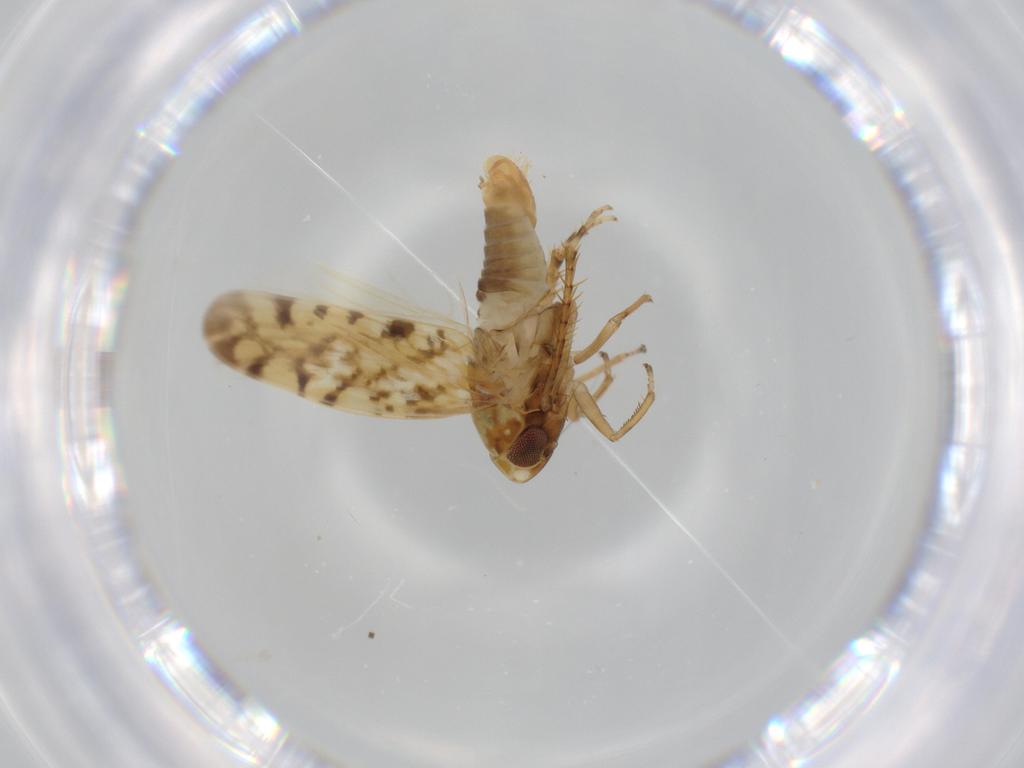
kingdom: Animalia
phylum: Arthropoda
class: Insecta
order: Hemiptera
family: Cicadellidae
